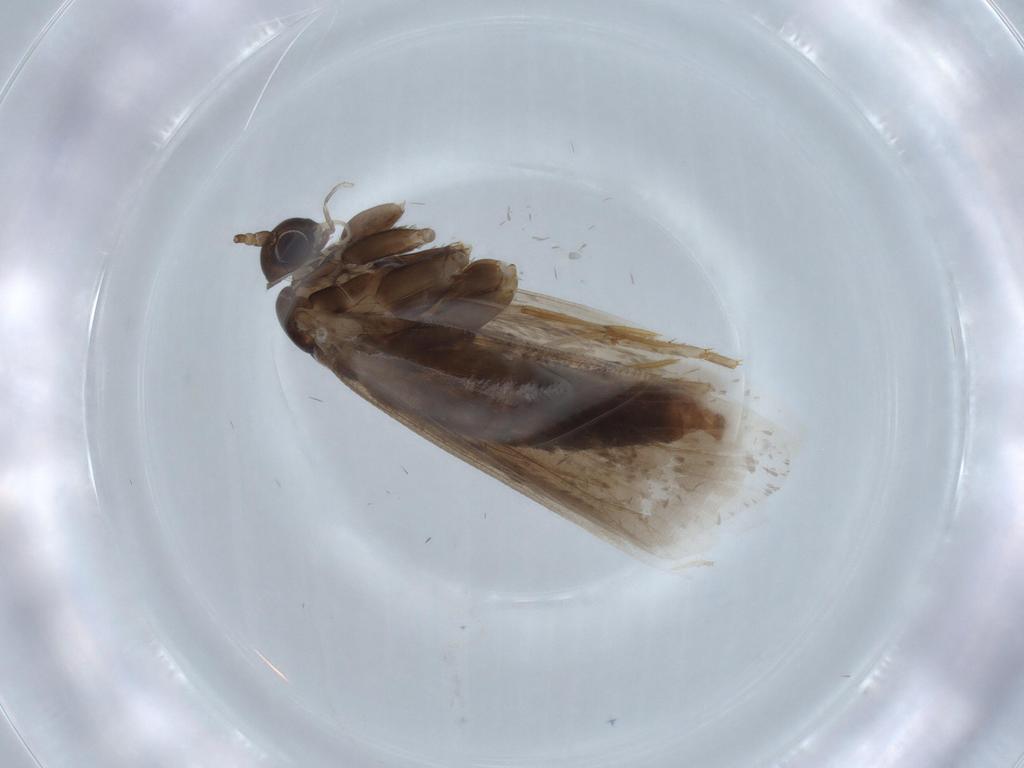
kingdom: Animalia
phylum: Arthropoda
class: Insecta
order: Lepidoptera
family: Incurvariidae
